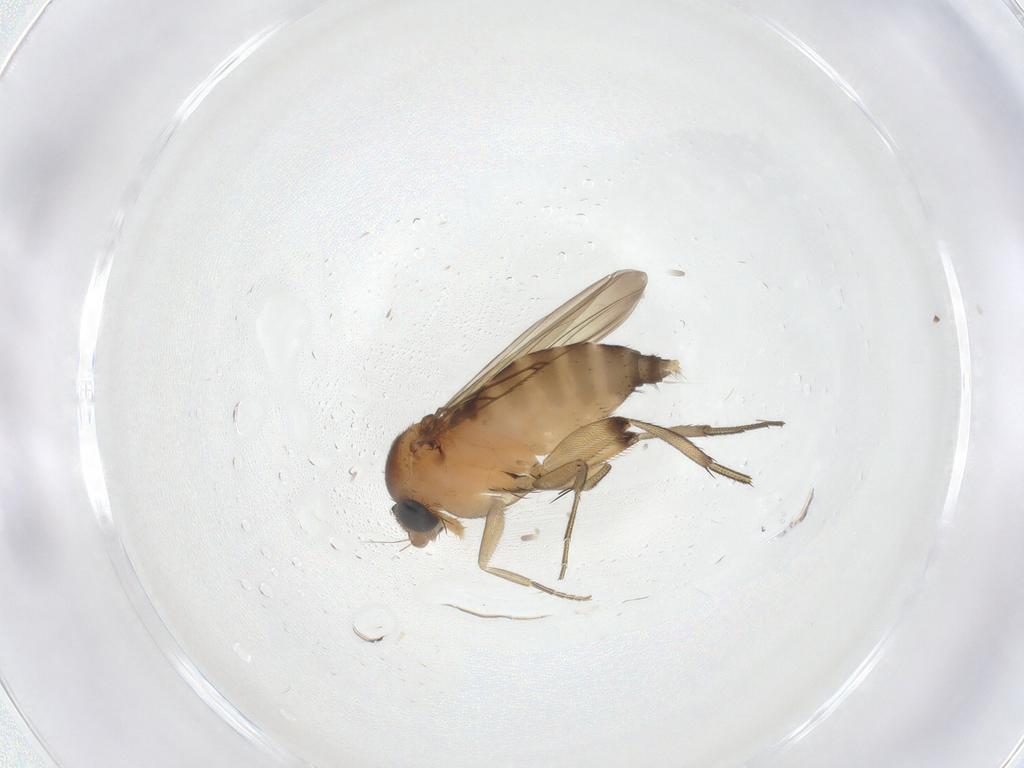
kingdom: Animalia
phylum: Arthropoda
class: Insecta
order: Diptera
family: Phoridae
